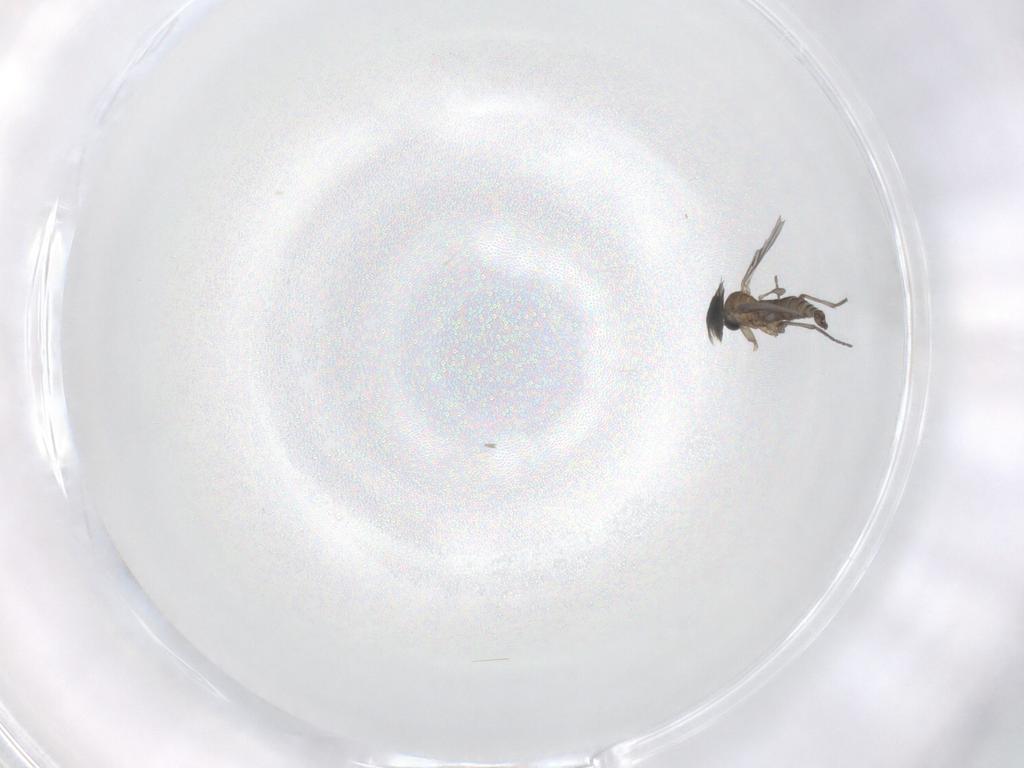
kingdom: Animalia
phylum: Arthropoda
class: Insecta
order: Diptera
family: Sciaridae
